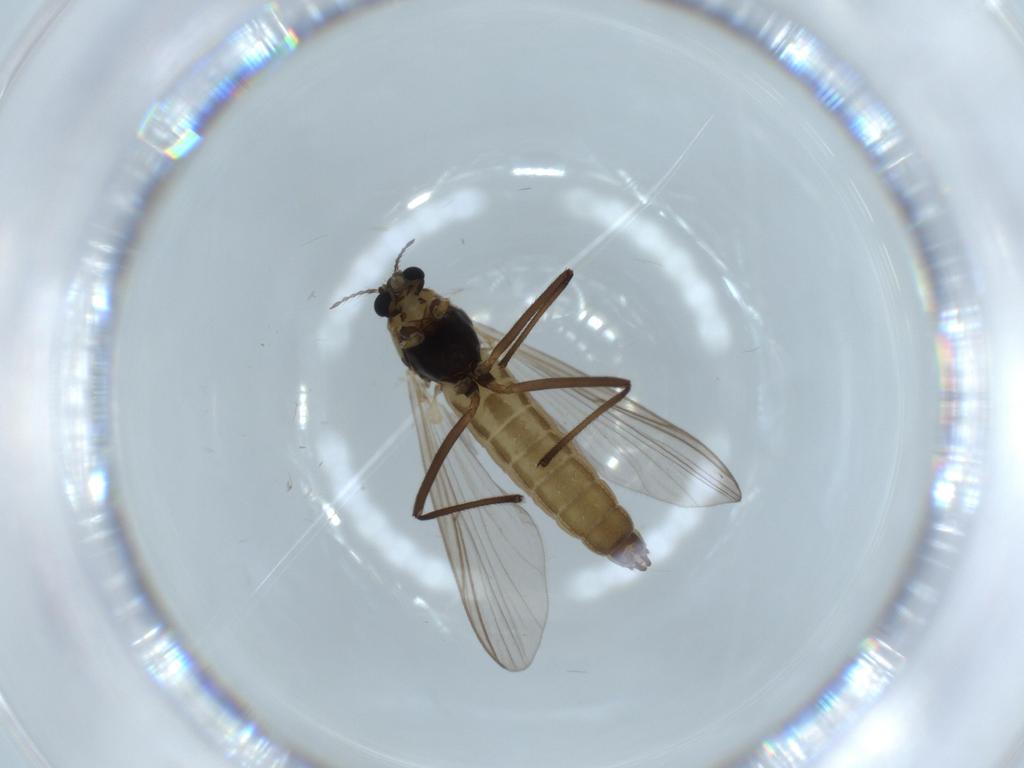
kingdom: Animalia
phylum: Arthropoda
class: Insecta
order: Diptera
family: Chironomidae
